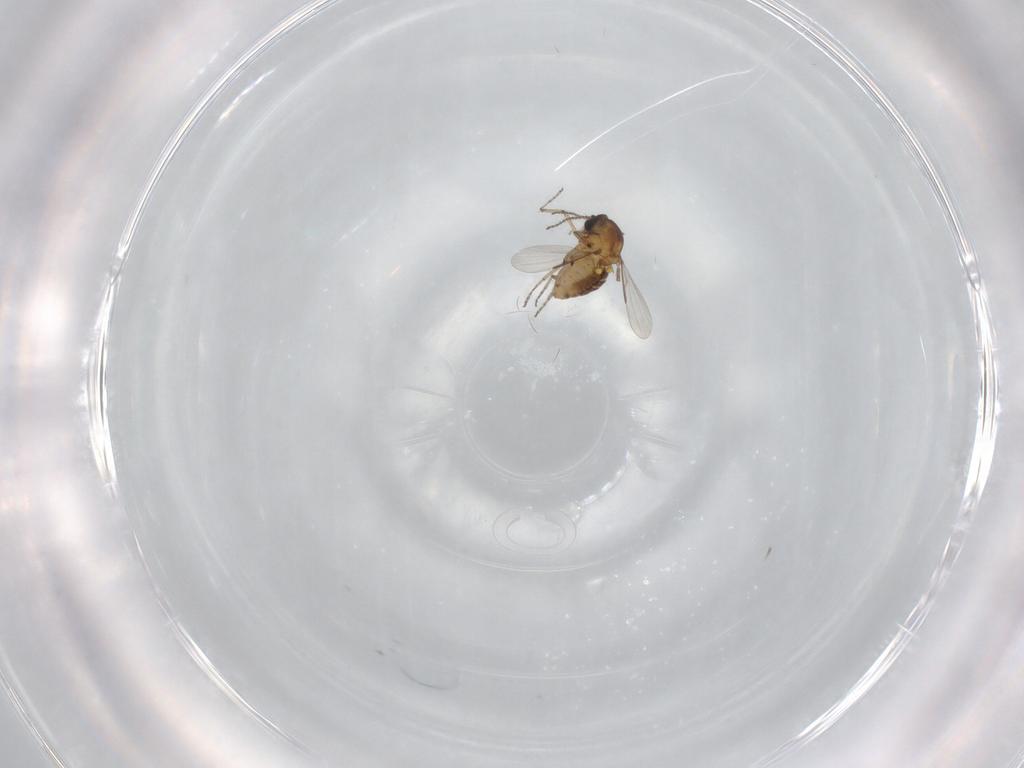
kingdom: Animalia
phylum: Arthropoda
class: Insecta
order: Diptera
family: Ceratopogonidae
